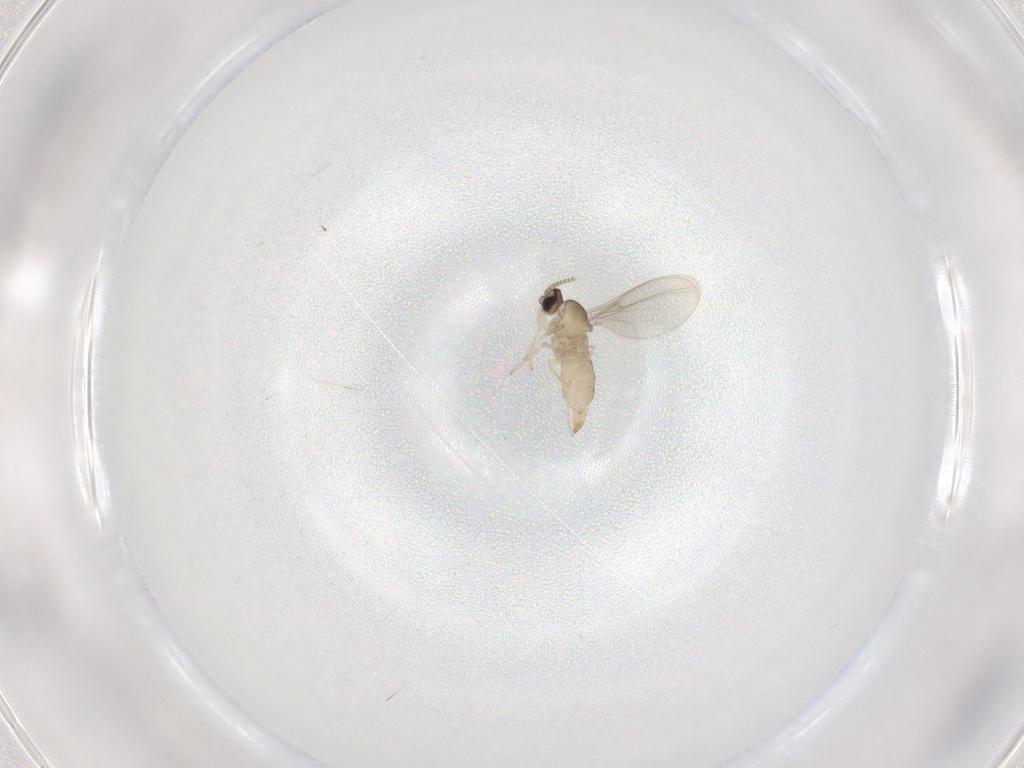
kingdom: Animalia
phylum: Arthropoda
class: Insecta
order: Diptera
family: Cecidomyiidae
